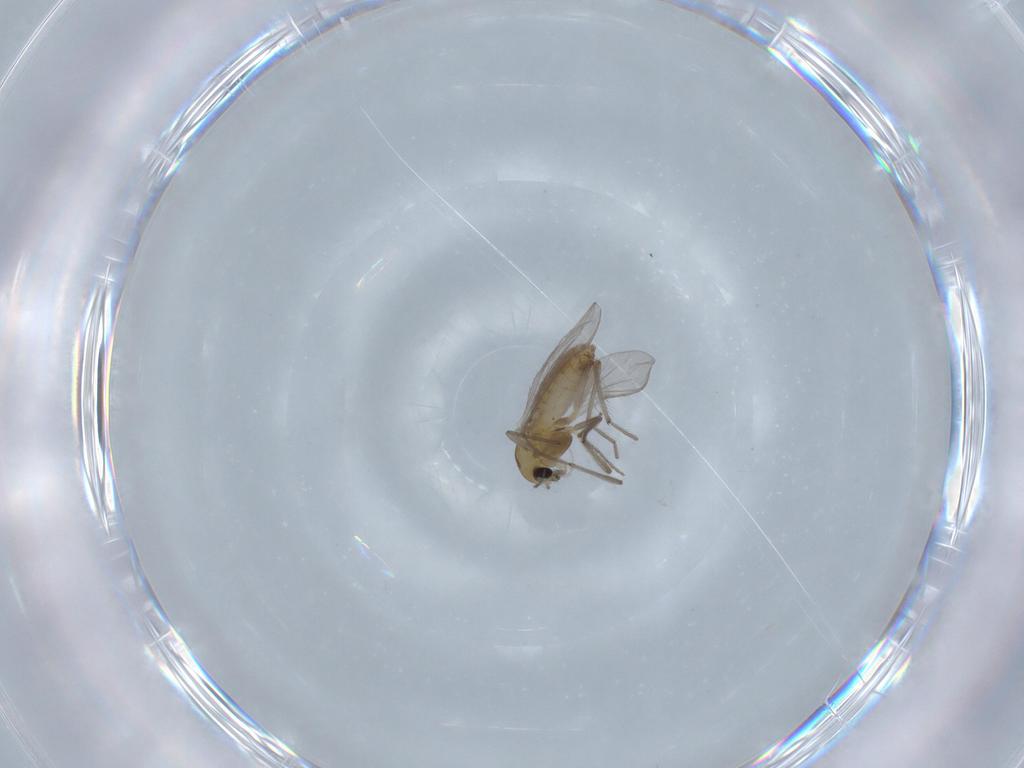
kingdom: Animalia
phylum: Arthropoda
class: Insecta
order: Diptera
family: Chironomidae
